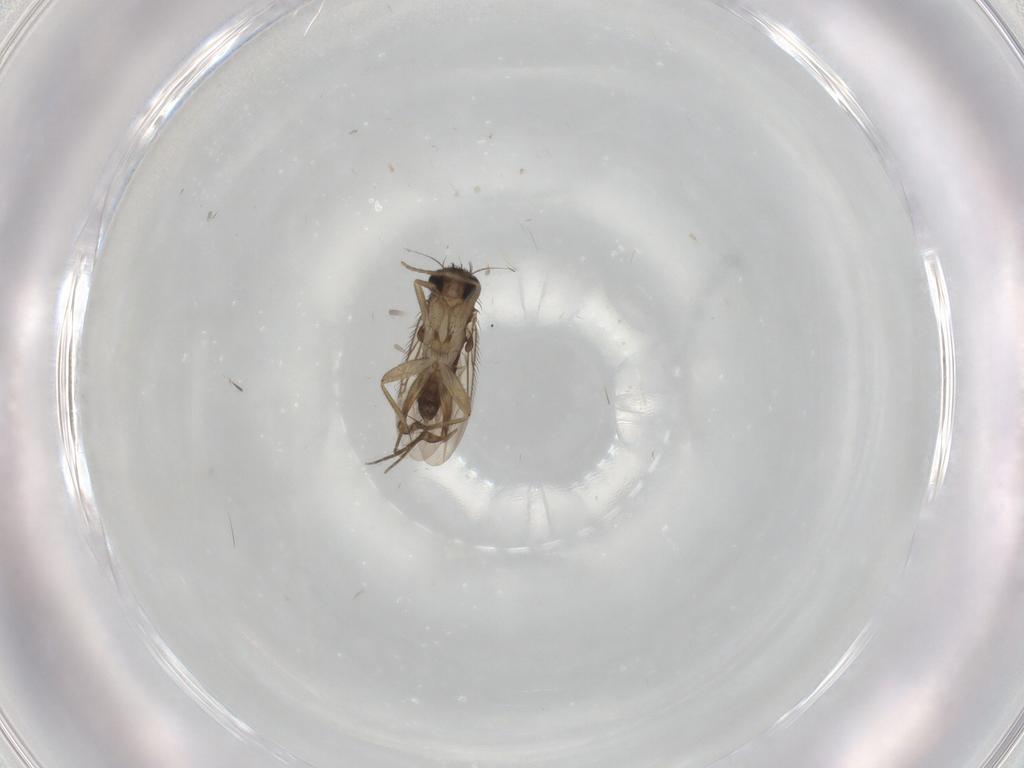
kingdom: Animalia
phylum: Arthropoda
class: Insecta
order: Diptera
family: Phoridae
